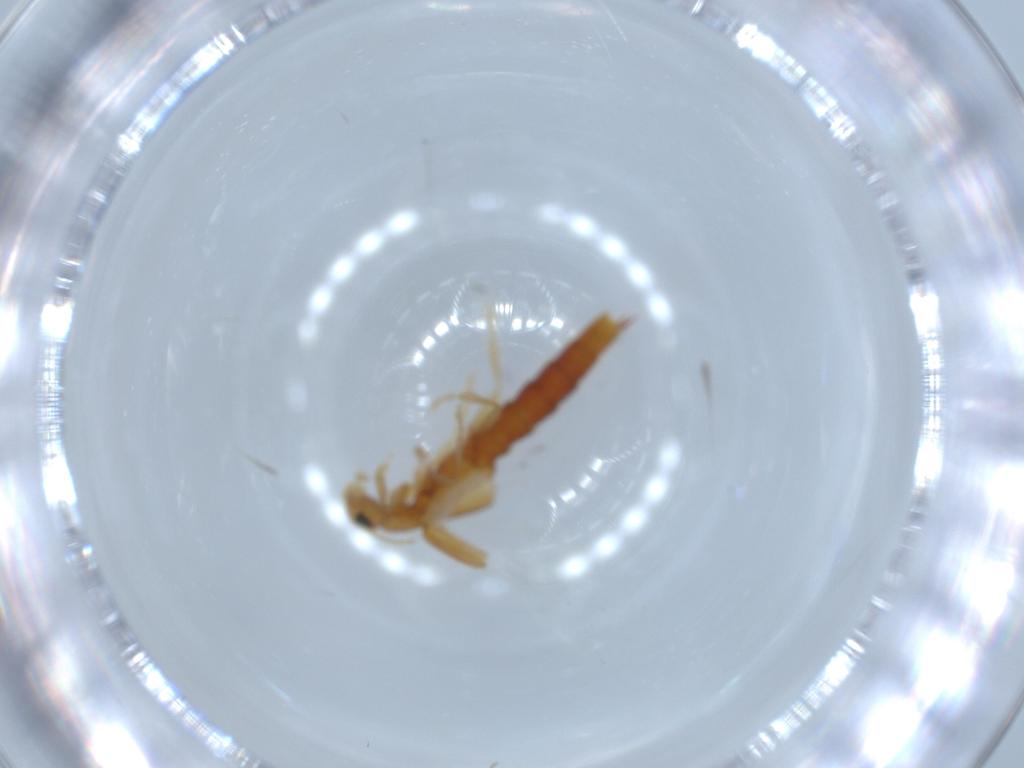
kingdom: Animalia
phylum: Arthropoda
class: Insecta
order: Coleoptera
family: Staphylinidae
